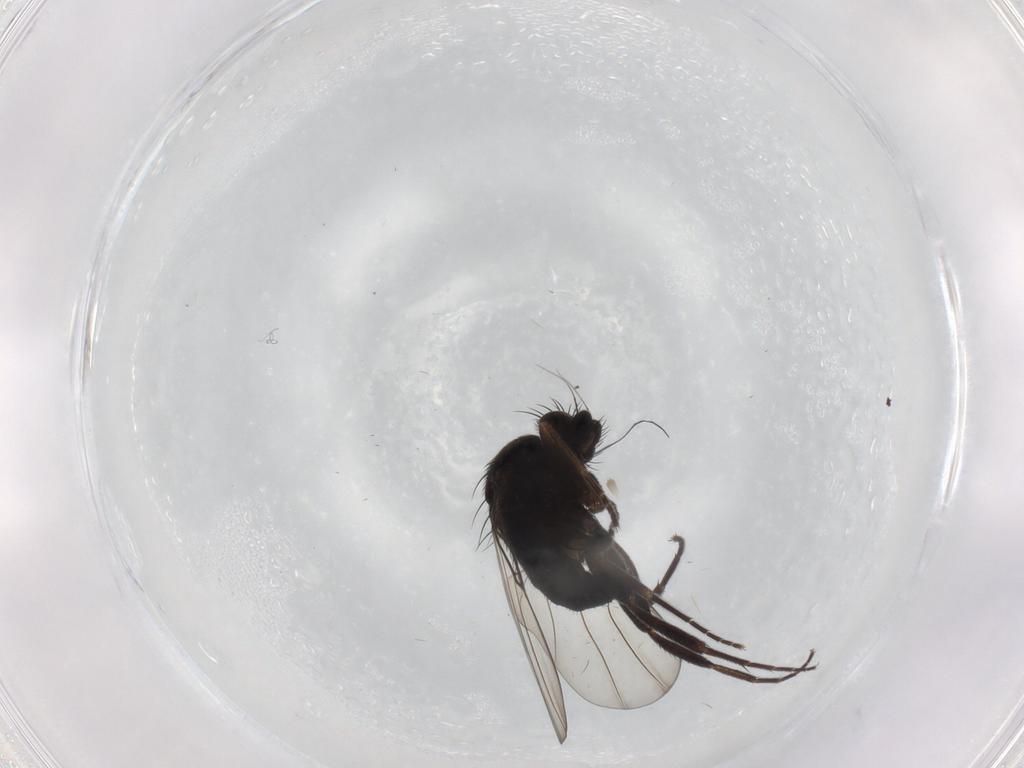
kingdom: Animalia
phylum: Arthropoda
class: Insecta
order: Diptera
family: Phoridae
